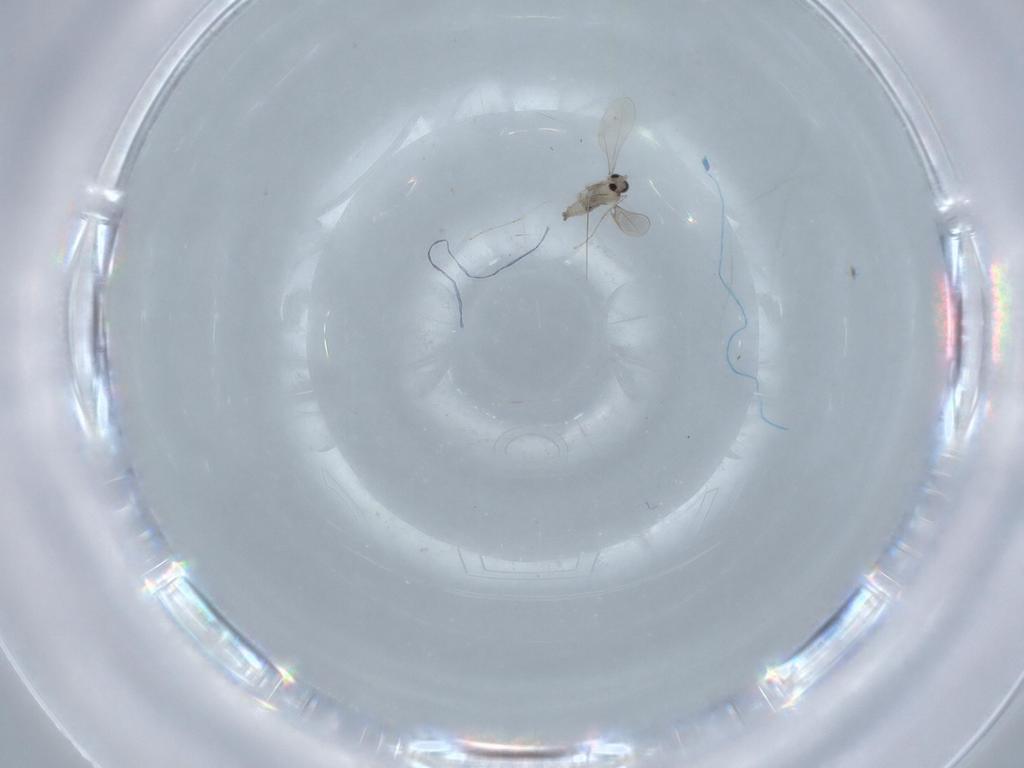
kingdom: Animalia
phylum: Arthropoda
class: Insecta
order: Diptera
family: Cecidomyiidae
